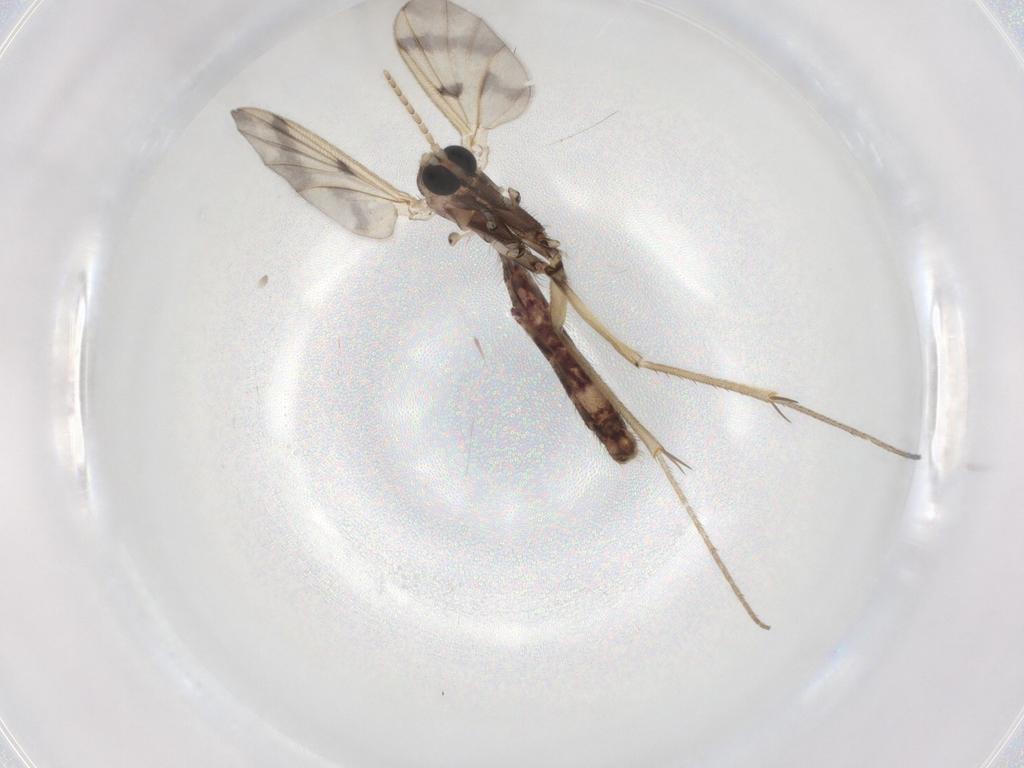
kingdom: Animalia
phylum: Arthropoda
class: Insecta
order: Diptera
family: Cecidomyiidae
